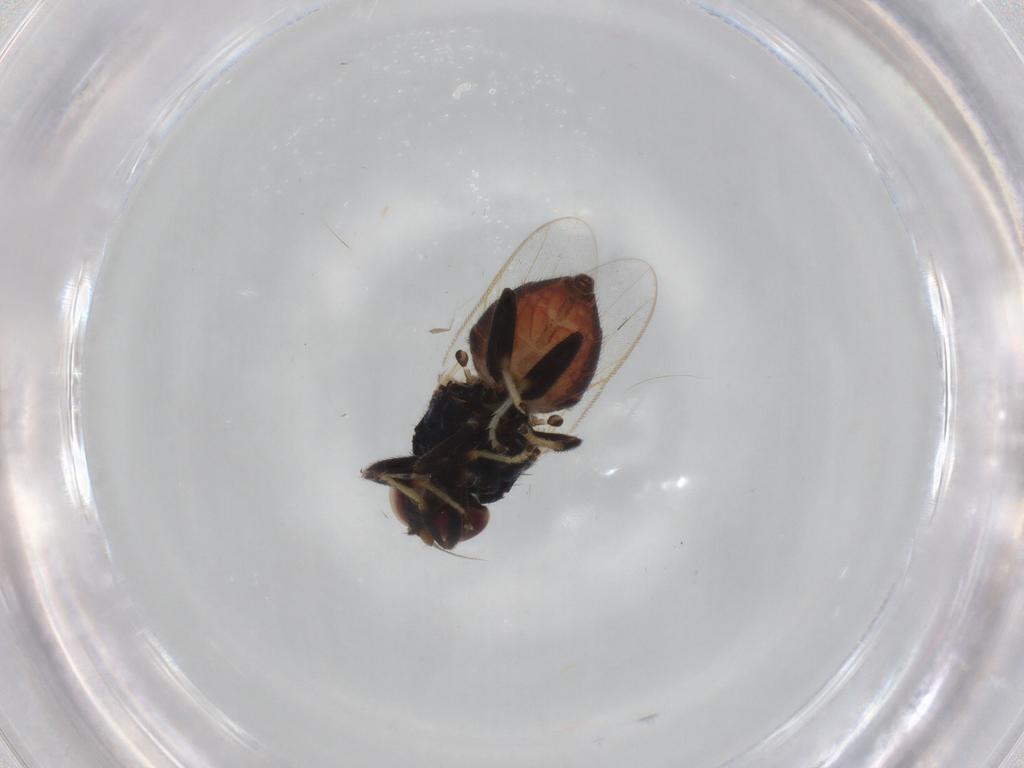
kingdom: Animalia
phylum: Arthropoda
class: Insecta
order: Diptera
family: Chloropidae
